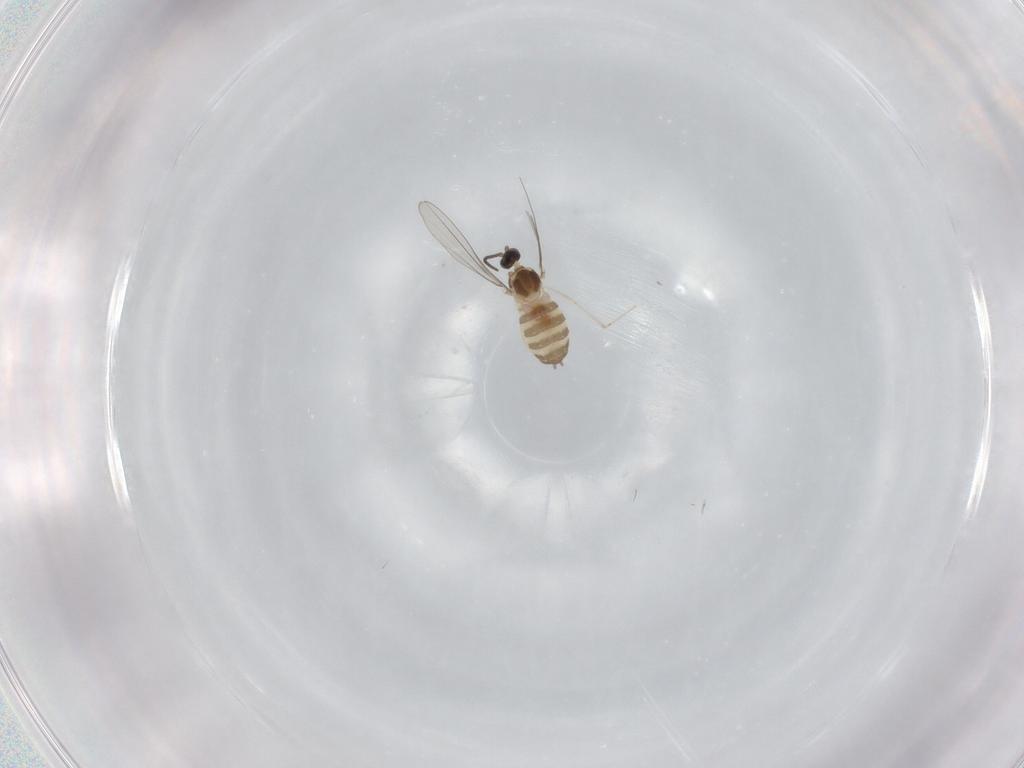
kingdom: Animalia
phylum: Arthropoda
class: Insecta
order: Diptera
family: Cecidomyiidae
